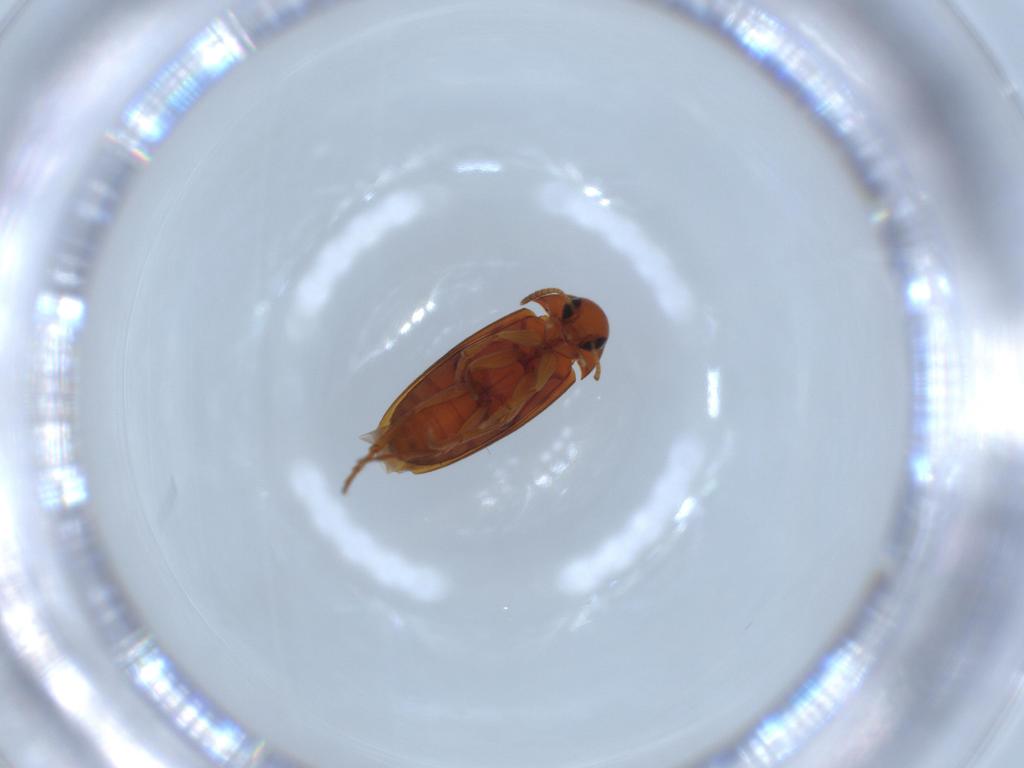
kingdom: Animalia
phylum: Arthropoda
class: Insecta
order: Coleoptera
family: Scraptiidae
